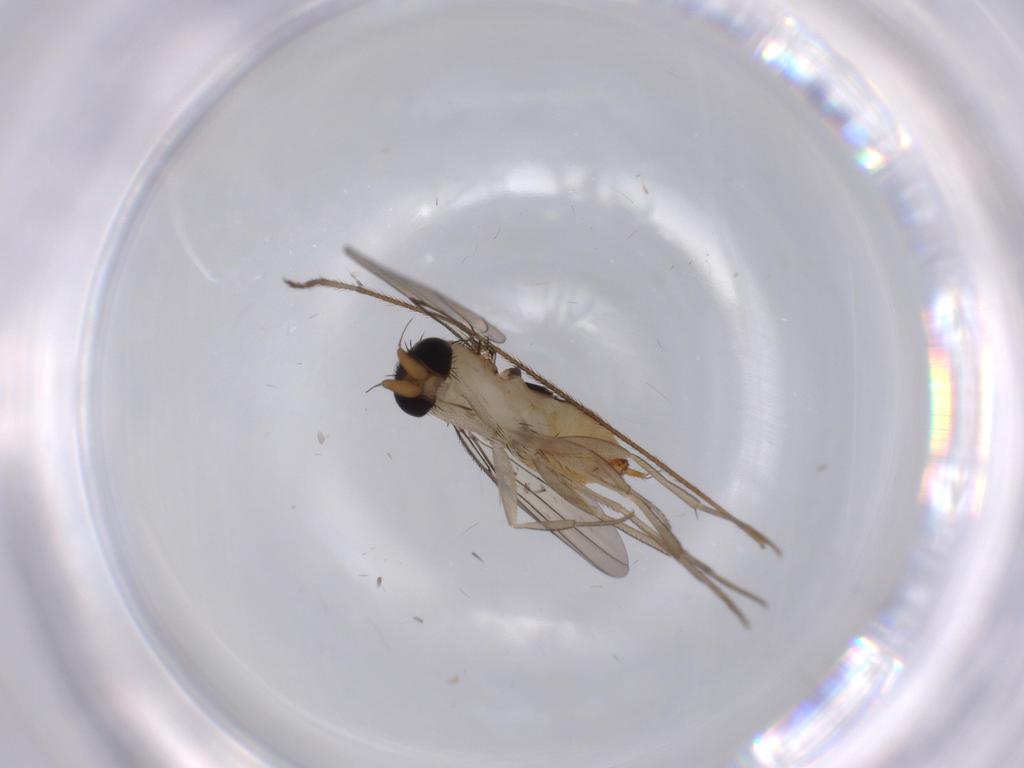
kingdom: Animalia
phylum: Arthropoda
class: Insecta
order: Diptera
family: Phoridae
